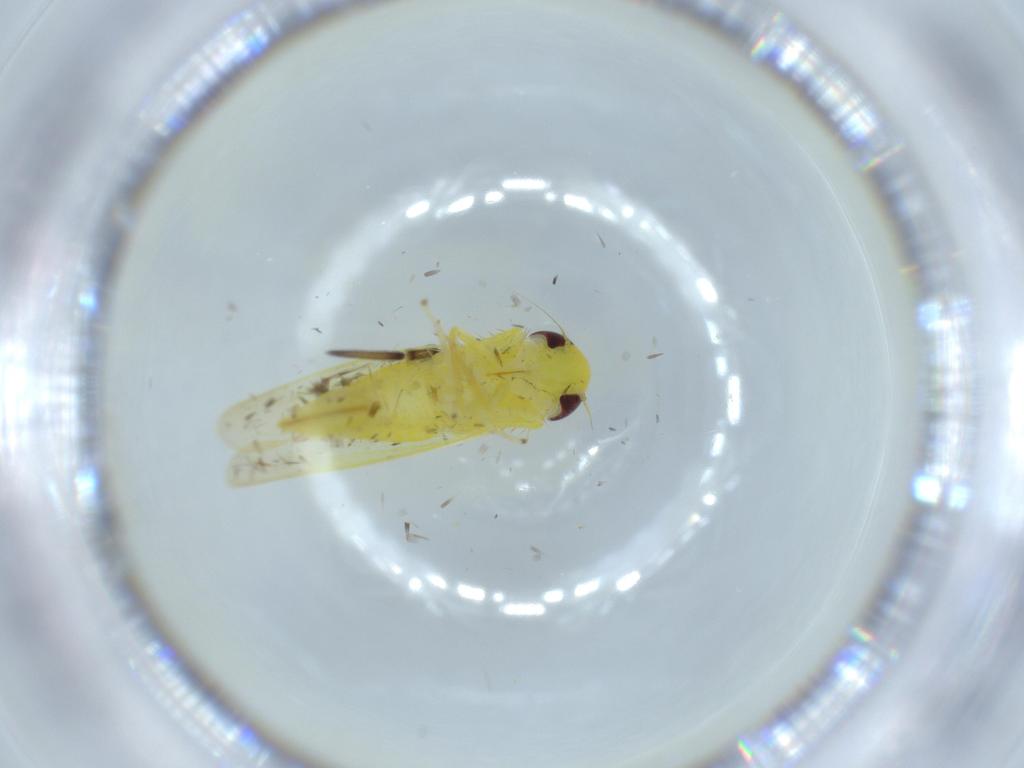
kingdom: Animalia
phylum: Arthropoda
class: Insecta
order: Hemiptera
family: Cicadellidae
